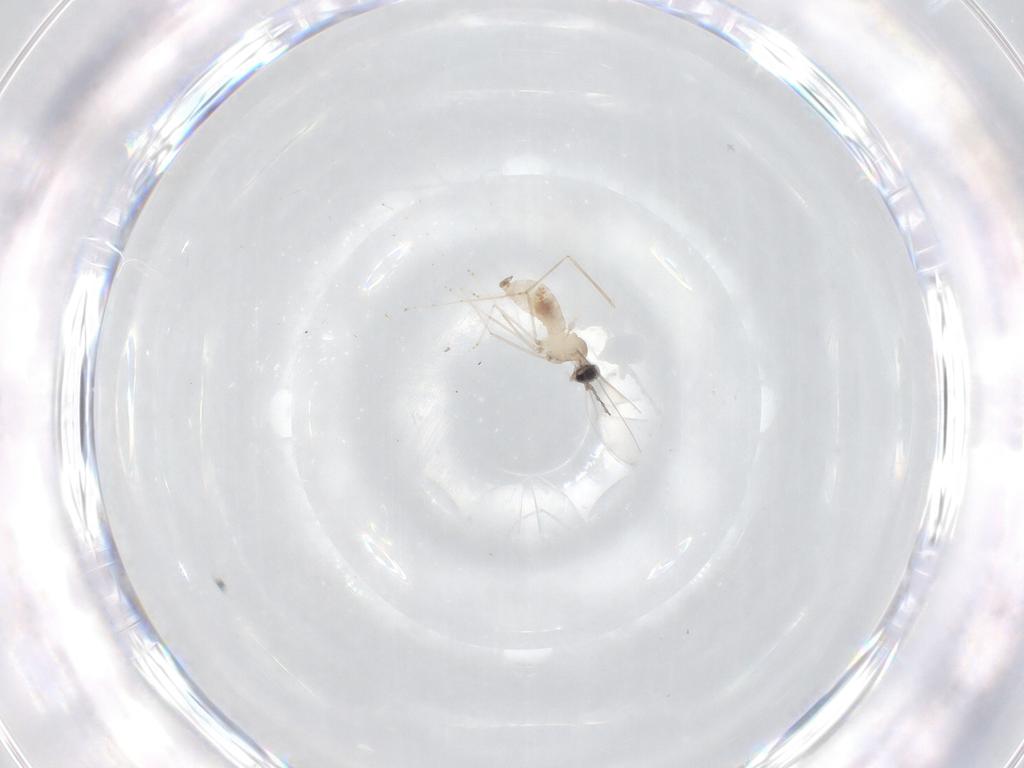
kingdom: Animalia
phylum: Arthropoda
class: Insecta
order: Diptera
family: Cecidomyiidae
